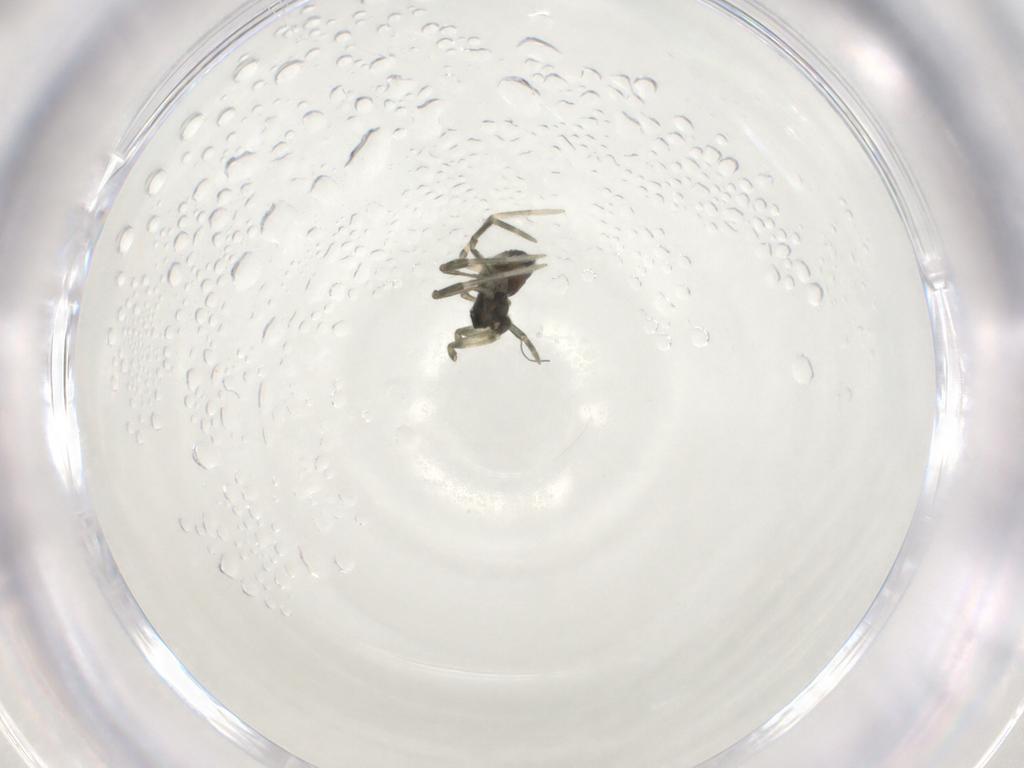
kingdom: Animalia
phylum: Arthropoda
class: Arachnida
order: Araneae
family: Linyphiidae
